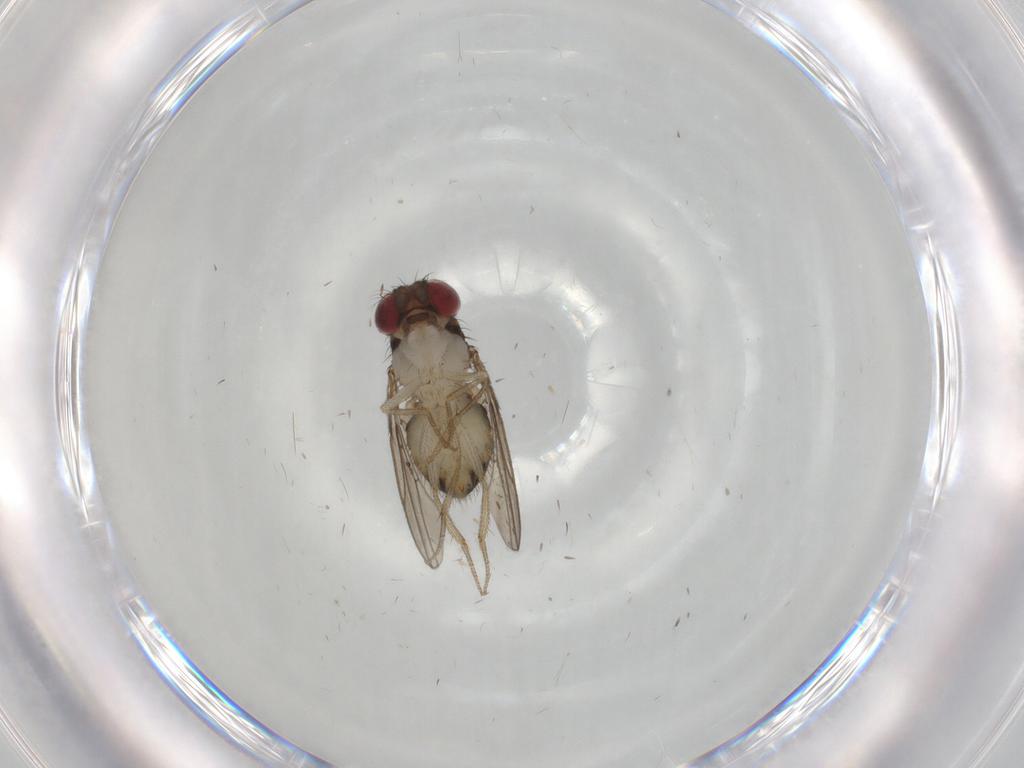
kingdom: Animalia
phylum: Arthropoda
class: Insecta
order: Diptera
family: Drosophilidae
